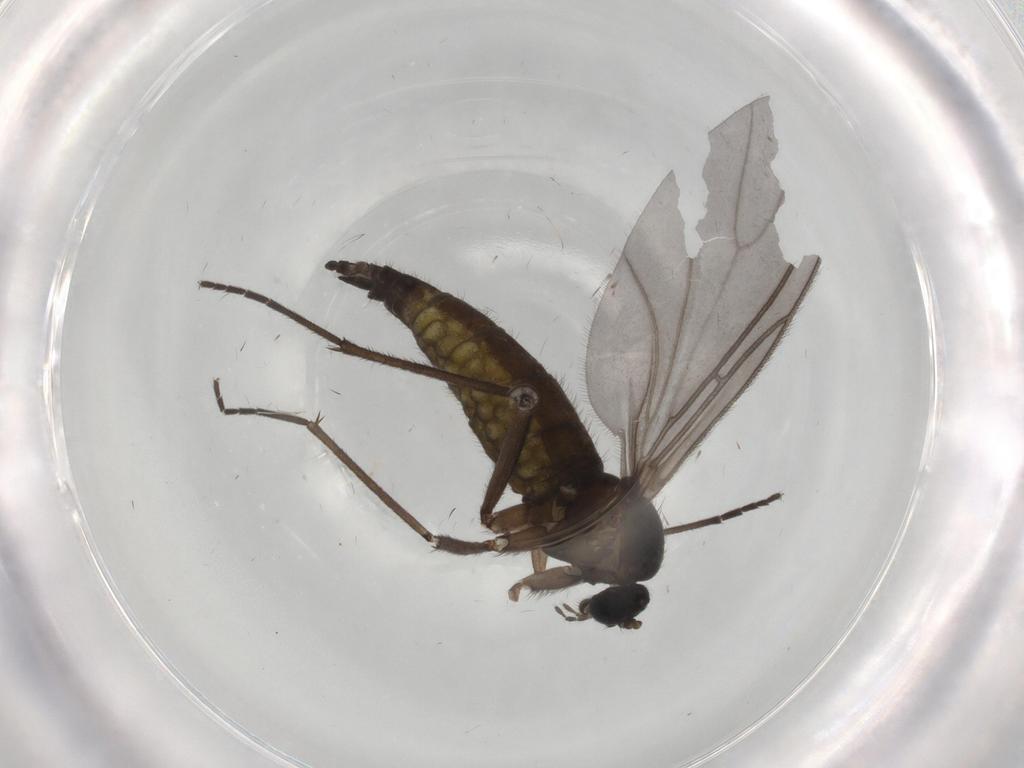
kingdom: Animalia
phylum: Arthropoda
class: Insecta
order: Diptera
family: Sciaridae
